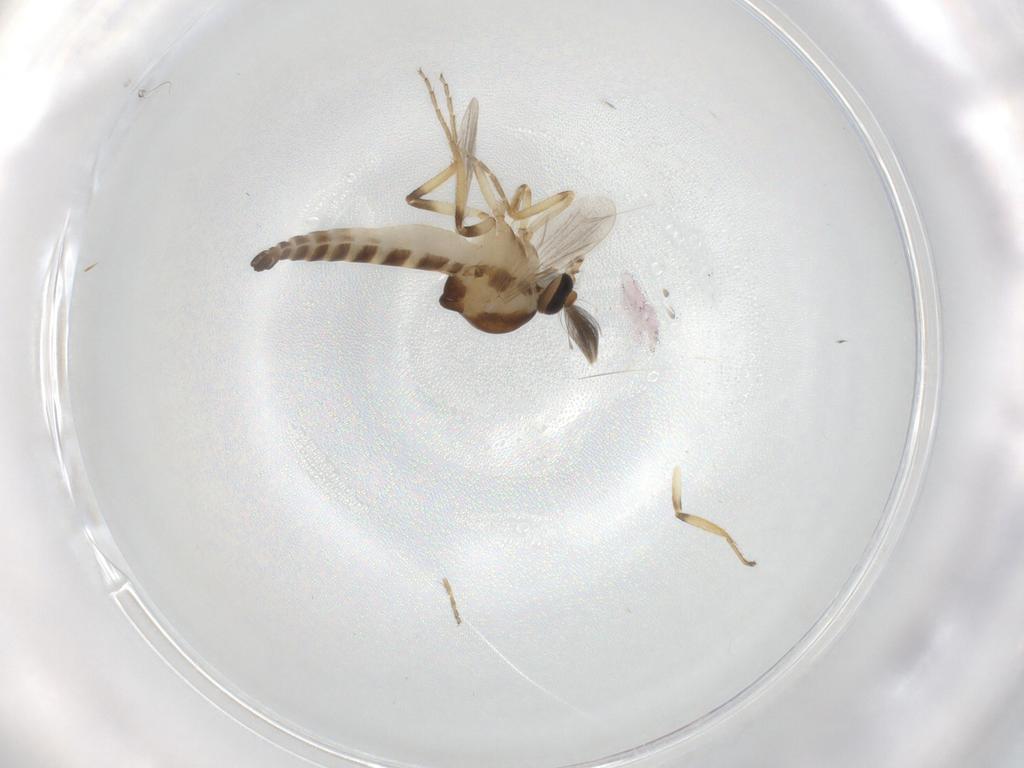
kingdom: Animalia
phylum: Arthropoda
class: Insecta
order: Diptera
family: Ceratopogonidae
